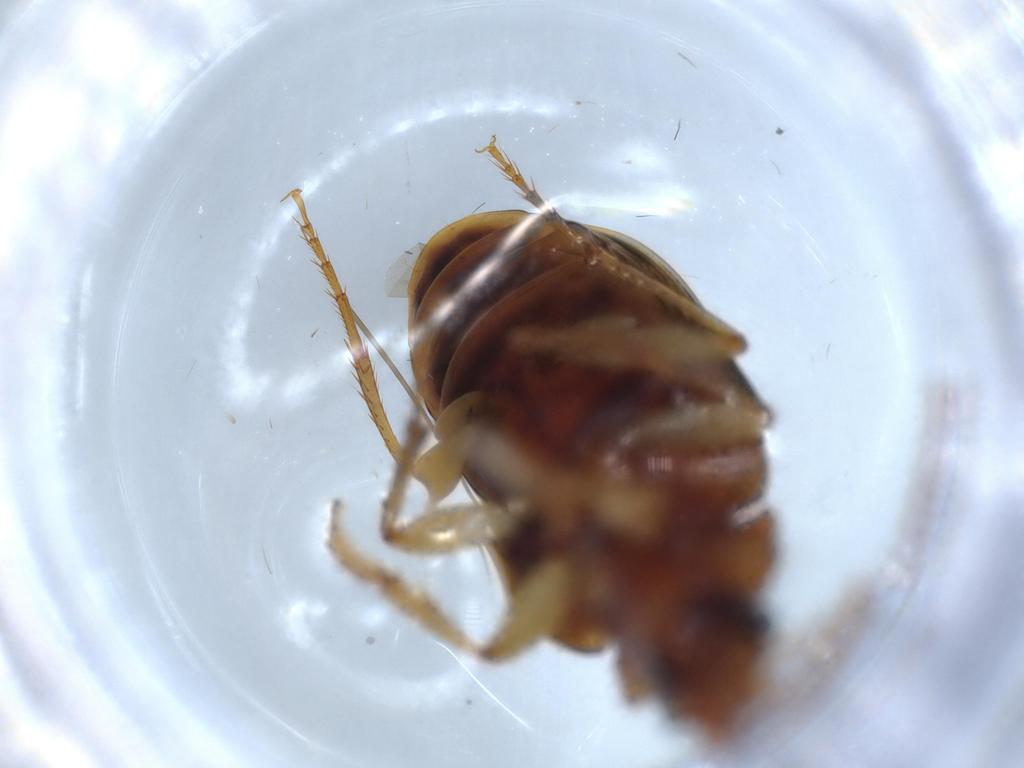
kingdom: Animalia
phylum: Arthropoda
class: Insecta
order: Coleoptera
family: Carabidae
